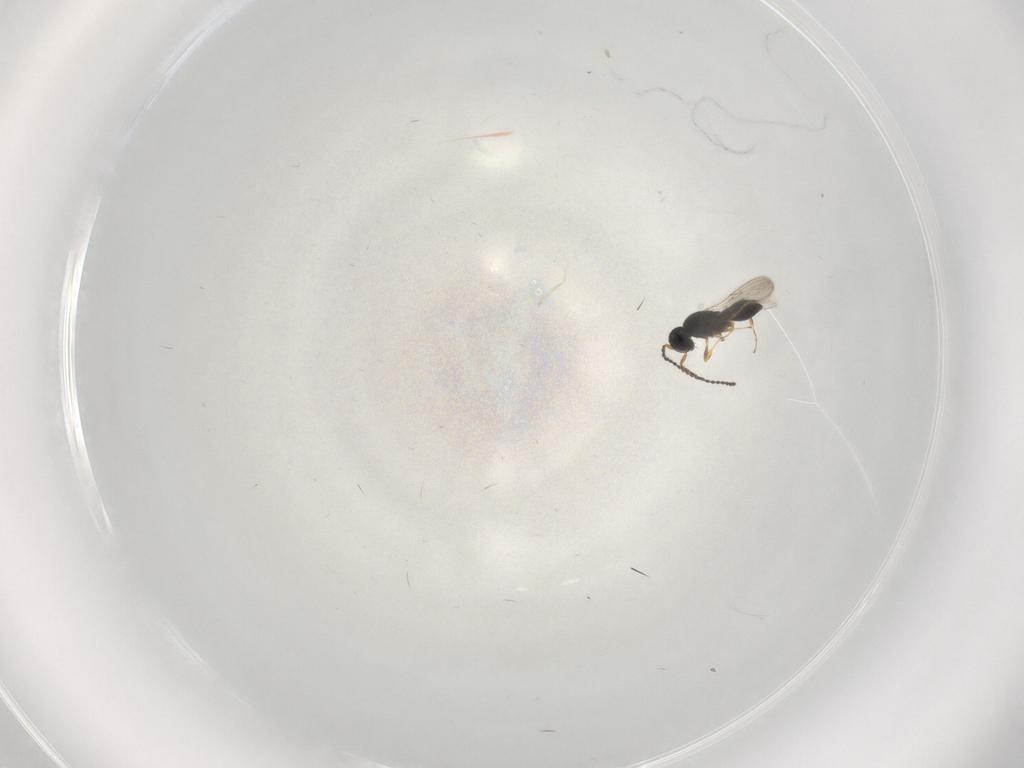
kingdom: Animalia
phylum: Arthropoda
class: Insecta
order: Hymenoptera
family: Scelionidae
